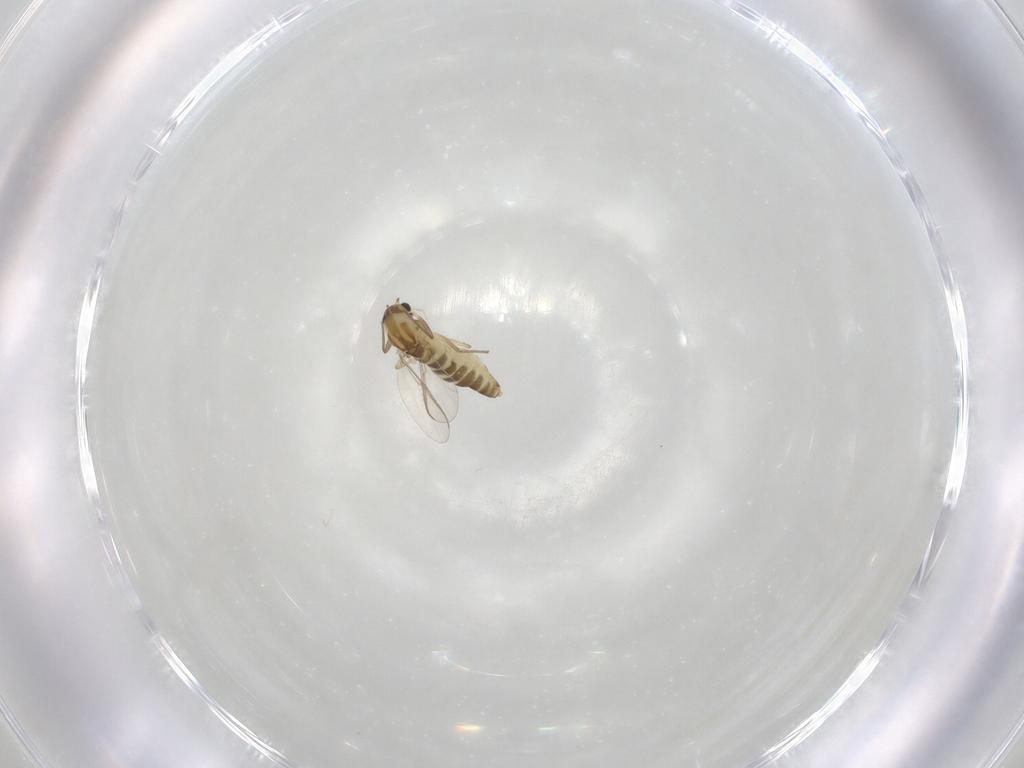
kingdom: Animalia
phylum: Arthropoda
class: Insecta
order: Diptera
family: Chironomidae
